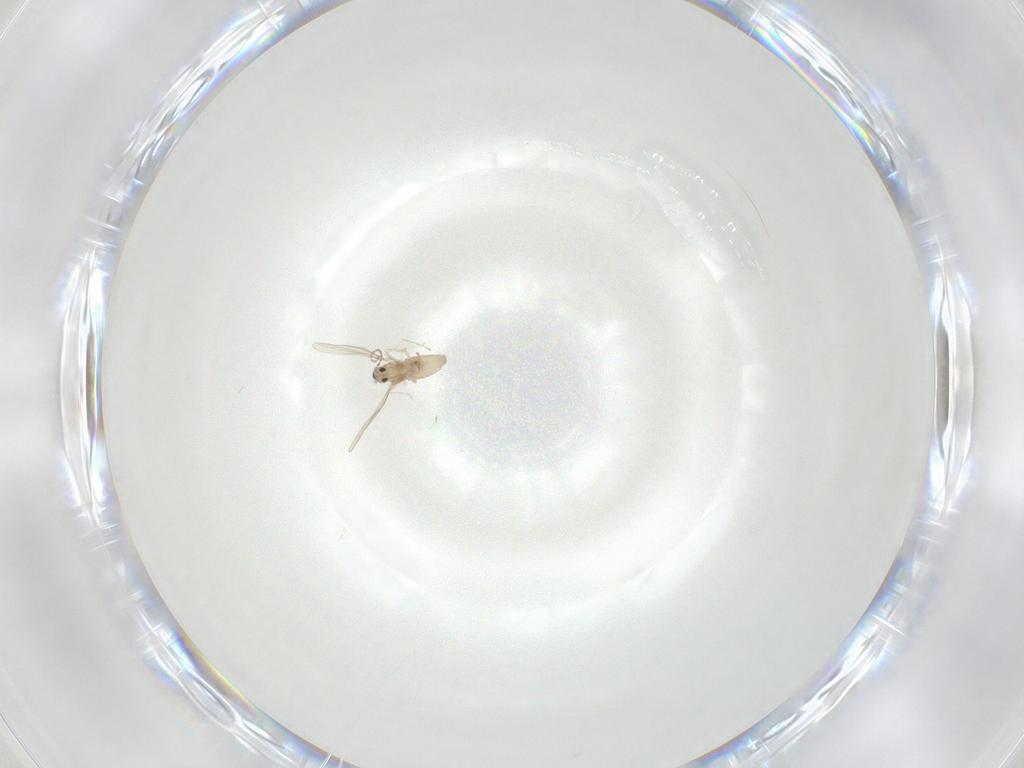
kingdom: Animalia
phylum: Arthropoda
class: Insecta
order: Diptera
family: Cecidomyiidae
